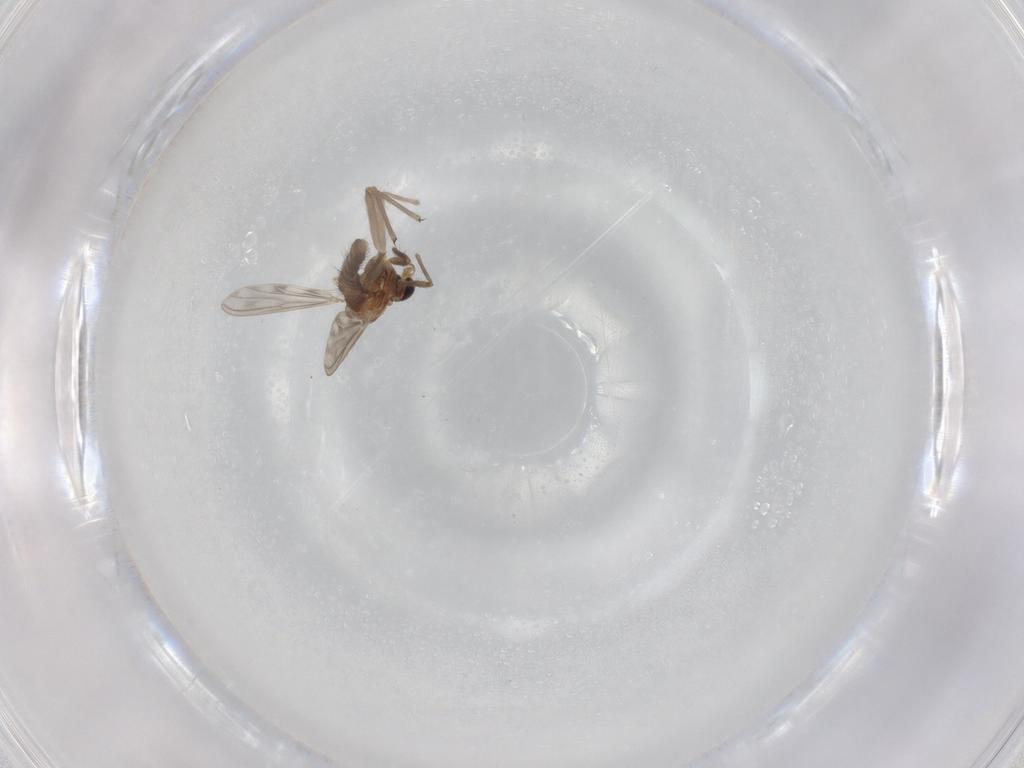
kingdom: Animalia
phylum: Arthropoda
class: Insecta
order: Diptera
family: Chironomidae
